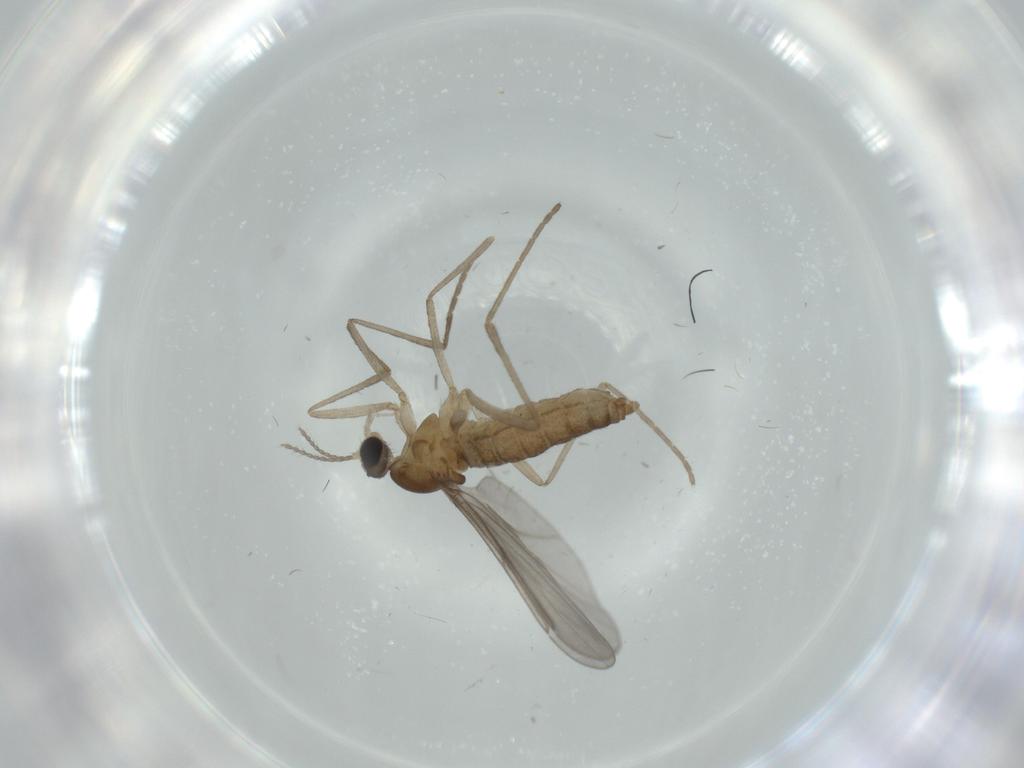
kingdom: Animalia
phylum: Arthropoda
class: Insecta
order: Diptera
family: Cecidomyiidae
